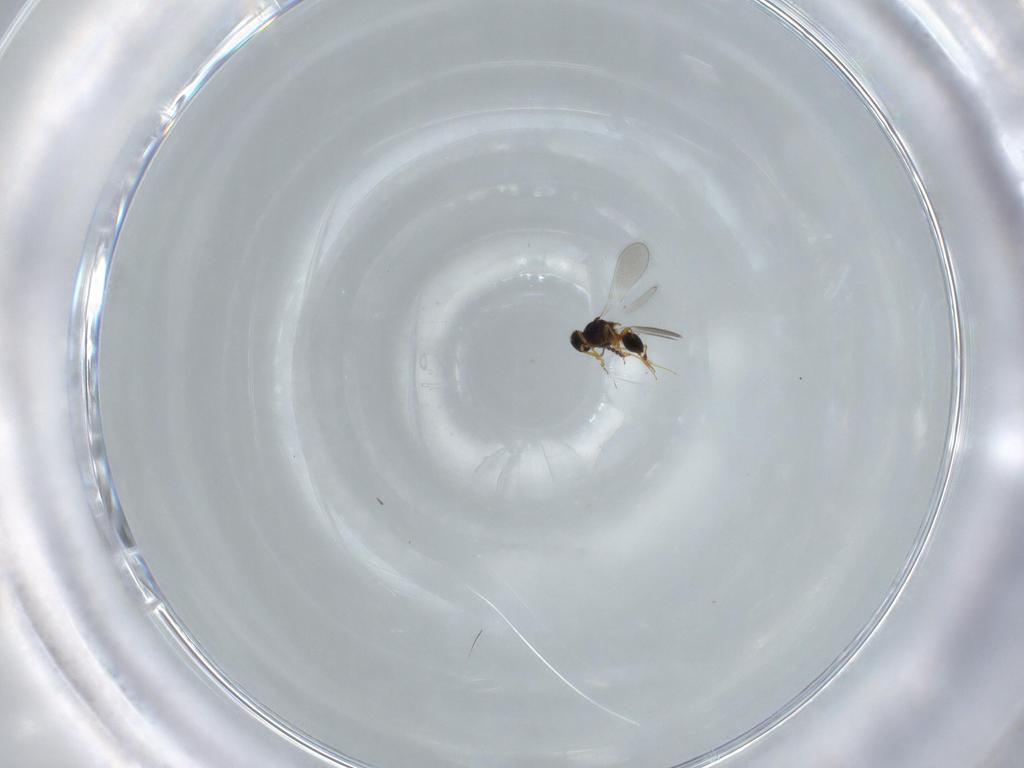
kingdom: Animalia
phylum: Arthropoda
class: Insecta
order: Hymenoptera
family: Platygastridae
